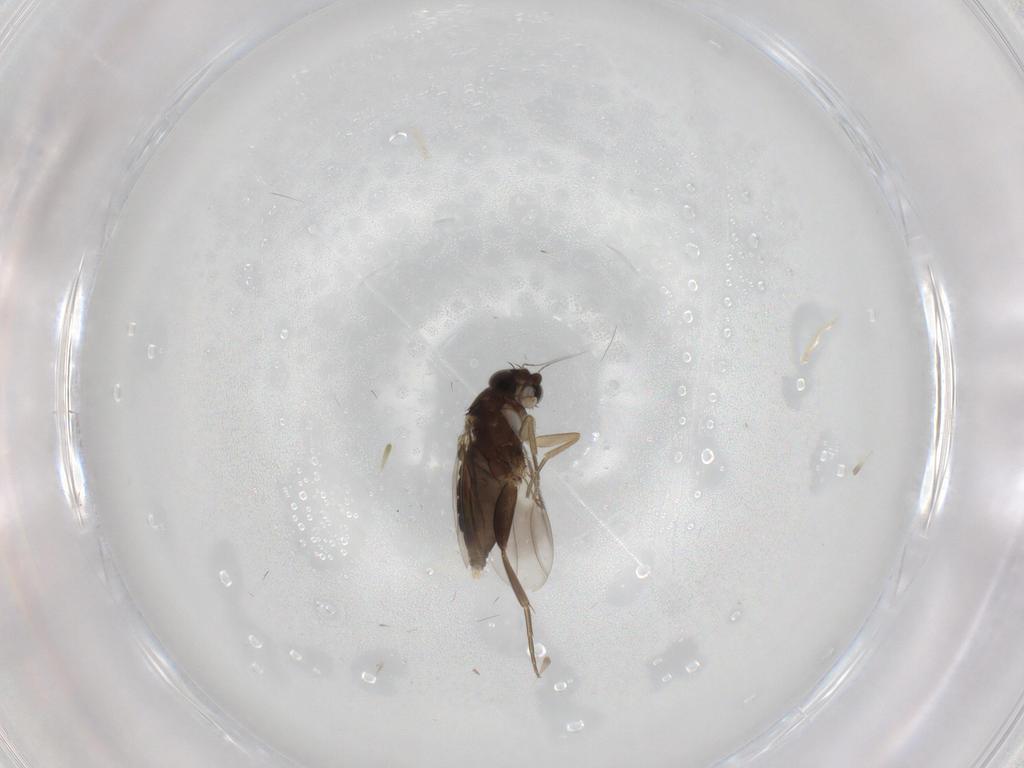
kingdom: Animalia
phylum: Arthropoda
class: Insecta
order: Diptera
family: Phoridae
